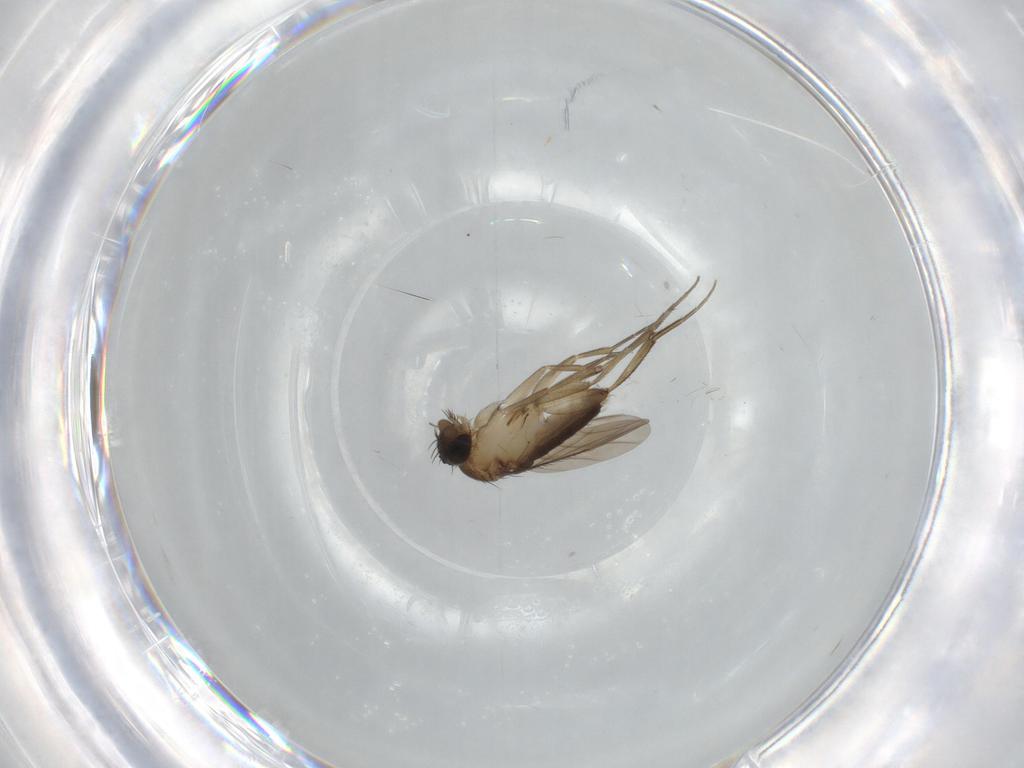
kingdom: Animalia
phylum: Arthropoda
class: Insecta
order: Diptera
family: Phoridae
